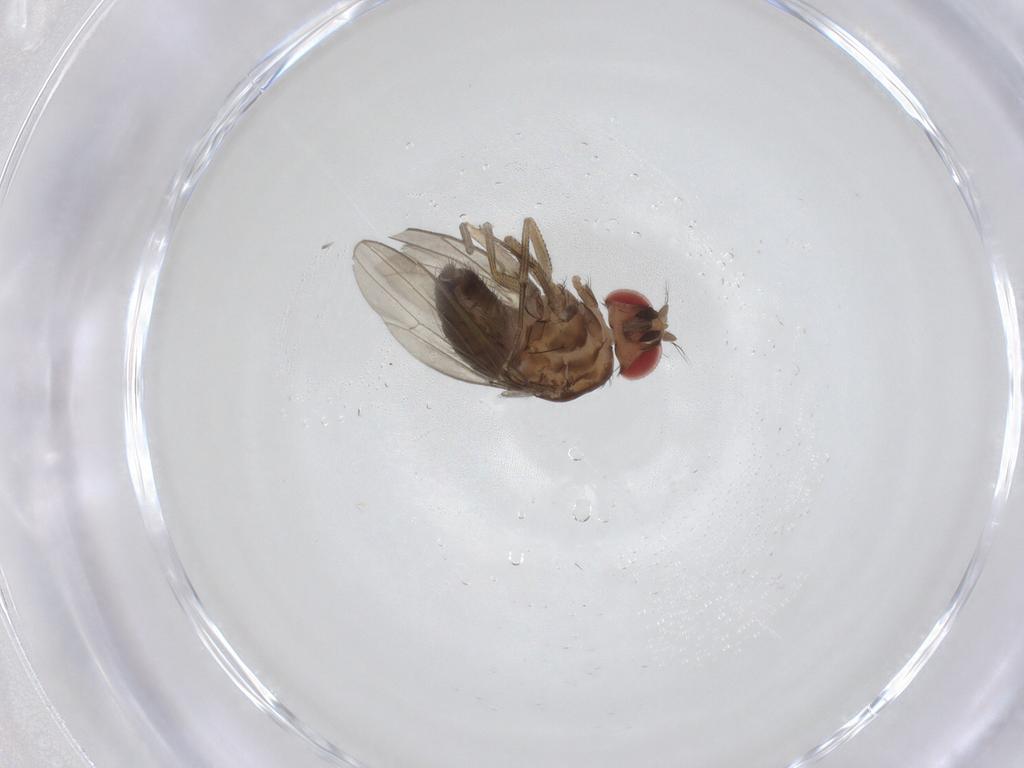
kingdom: Animalia
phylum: Arthropoda
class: Insecta
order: Diptera
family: Drosophilidae
